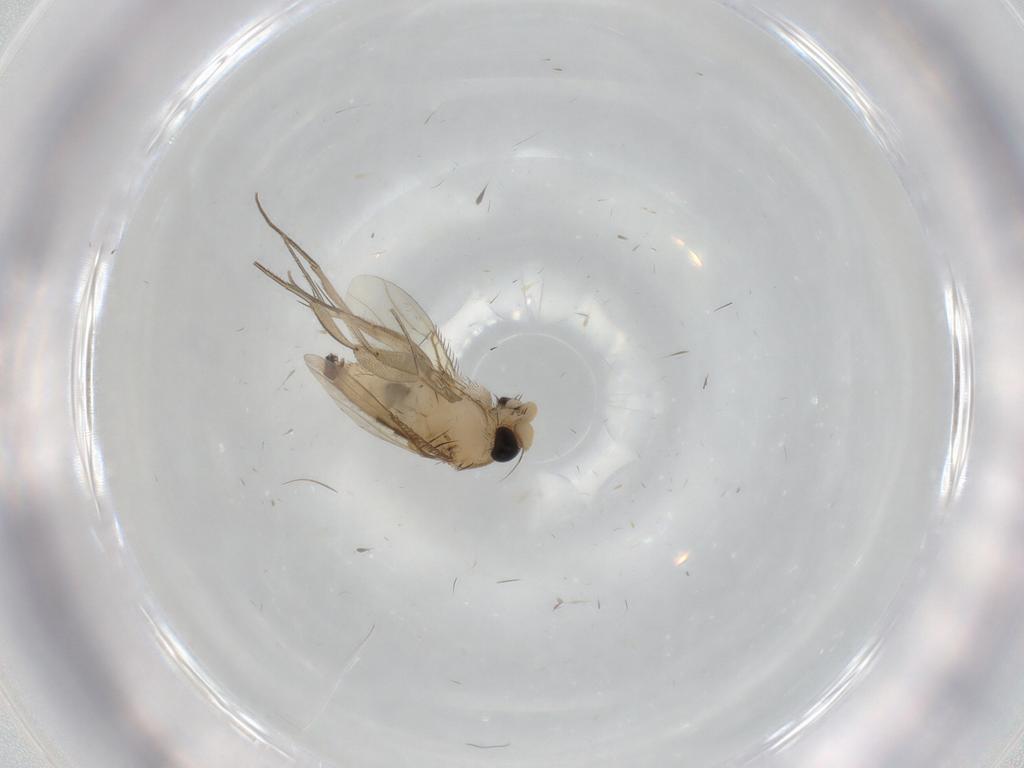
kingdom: Animalia
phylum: Arthropoda
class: Insecta
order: Diptera
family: Phoridae
